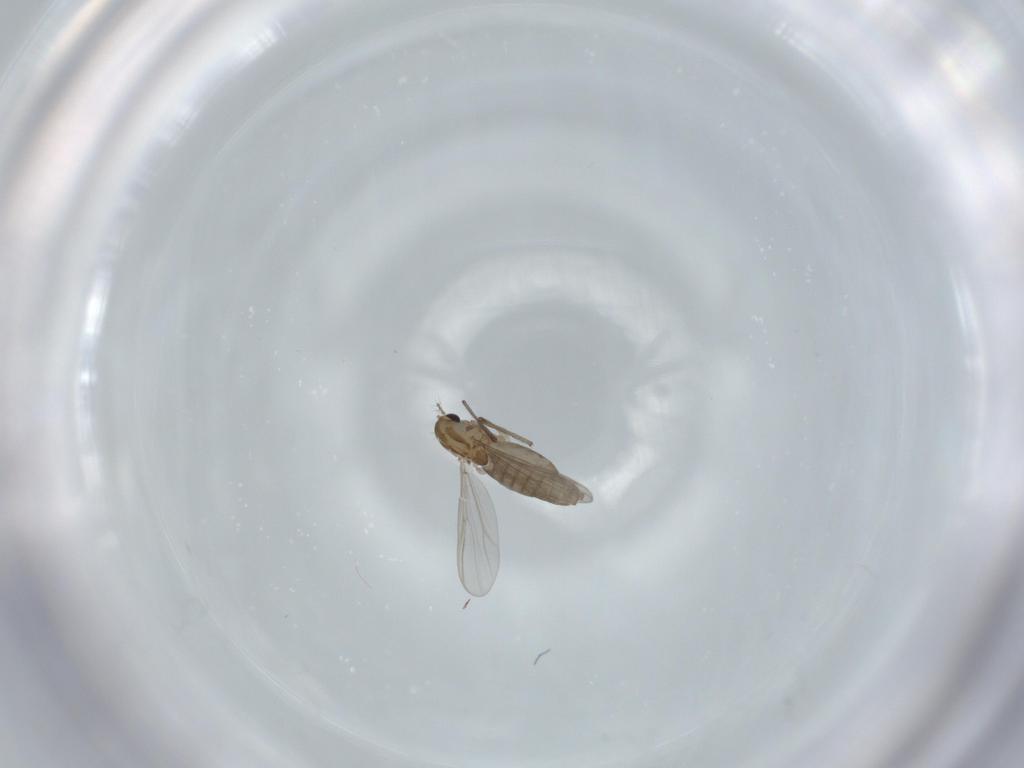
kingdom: Animalia
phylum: Arthropoda
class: Insecta
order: Diptera
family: Chironomidae
